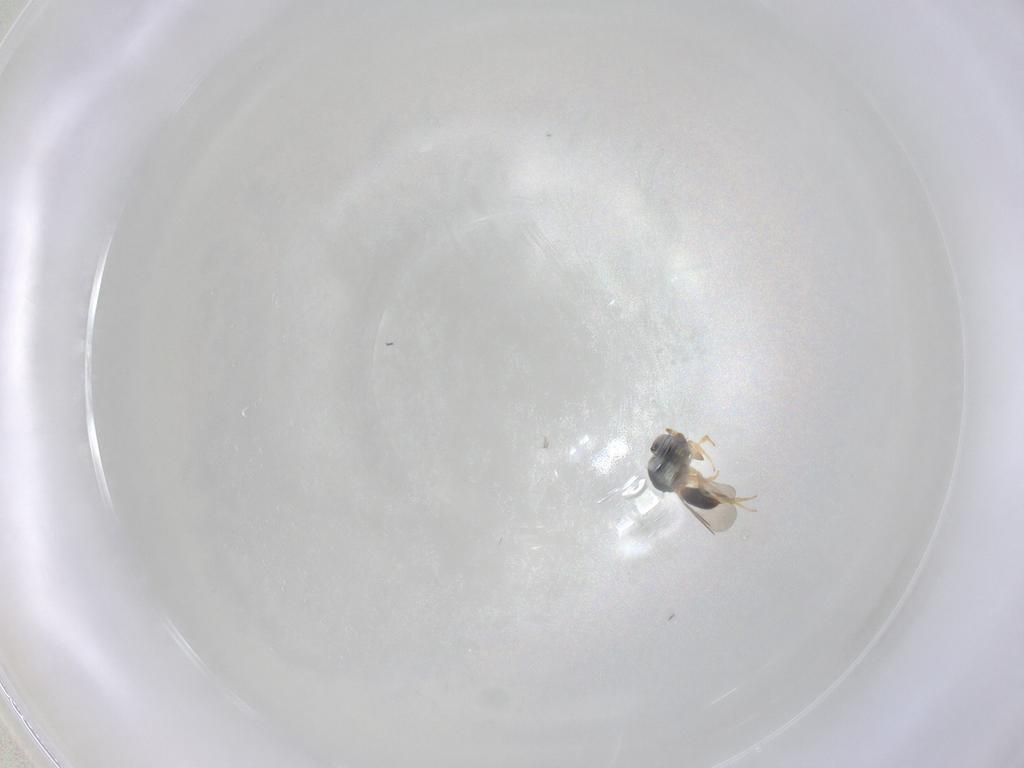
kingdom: Animalia
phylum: Arthropoda
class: Insecta
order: Hymenoptera
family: Scelionidae
